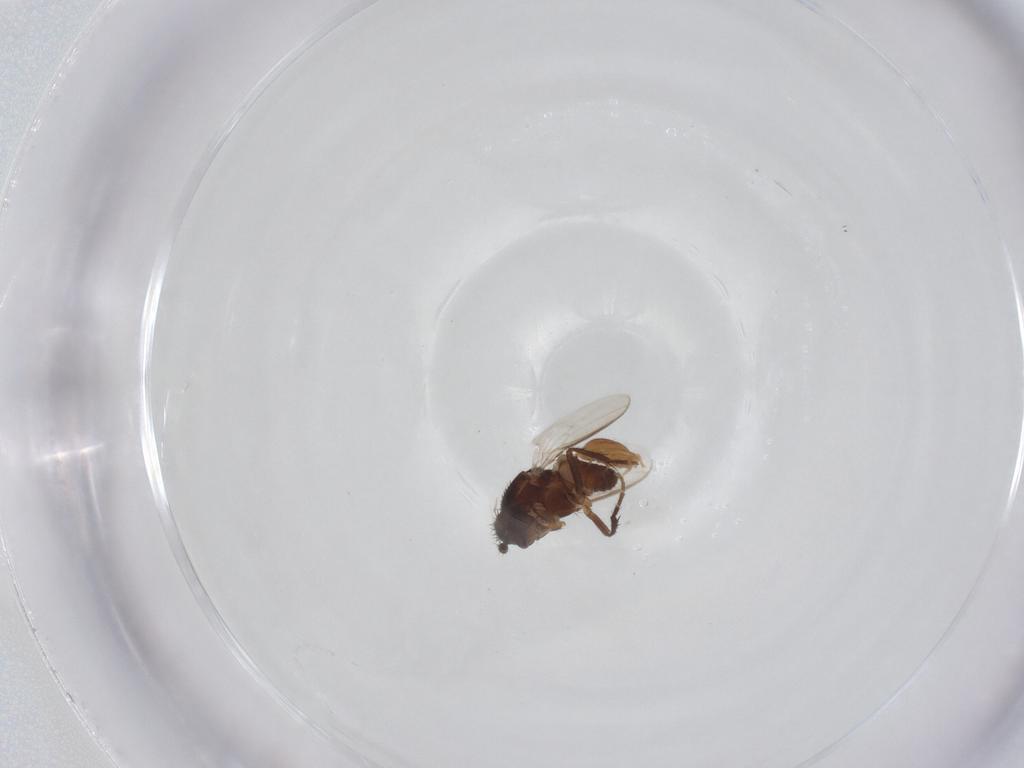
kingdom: Animalia
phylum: Arthropoda
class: Insecta
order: Diptera
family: Sphaeroceridae
